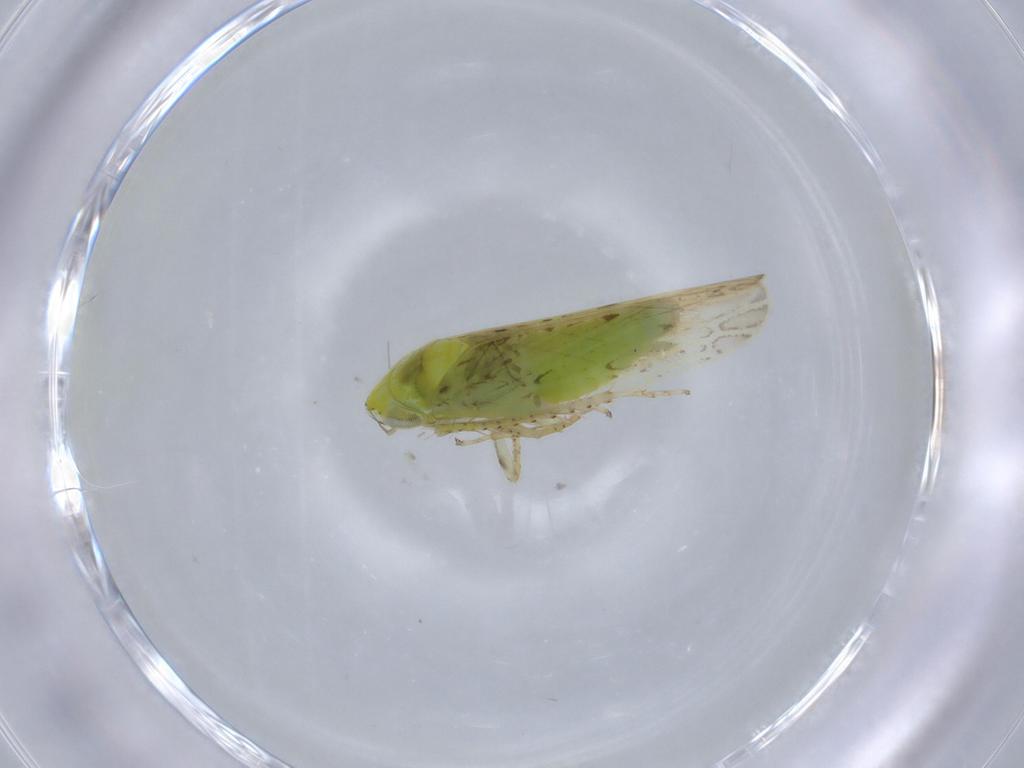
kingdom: Animalia
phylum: Arthropoda
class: Insecta
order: Hemiptera
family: Cicadellidae
